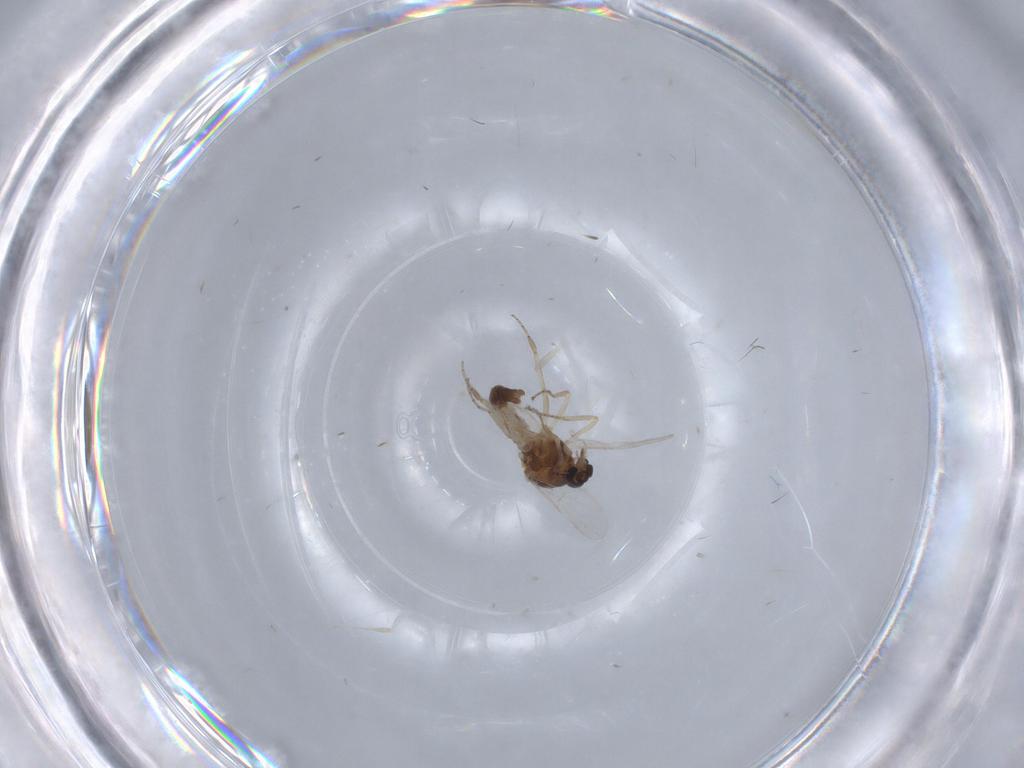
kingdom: Animalia
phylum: Arthropoda
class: Insecta
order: Diptera
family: Ceratopogonidae
